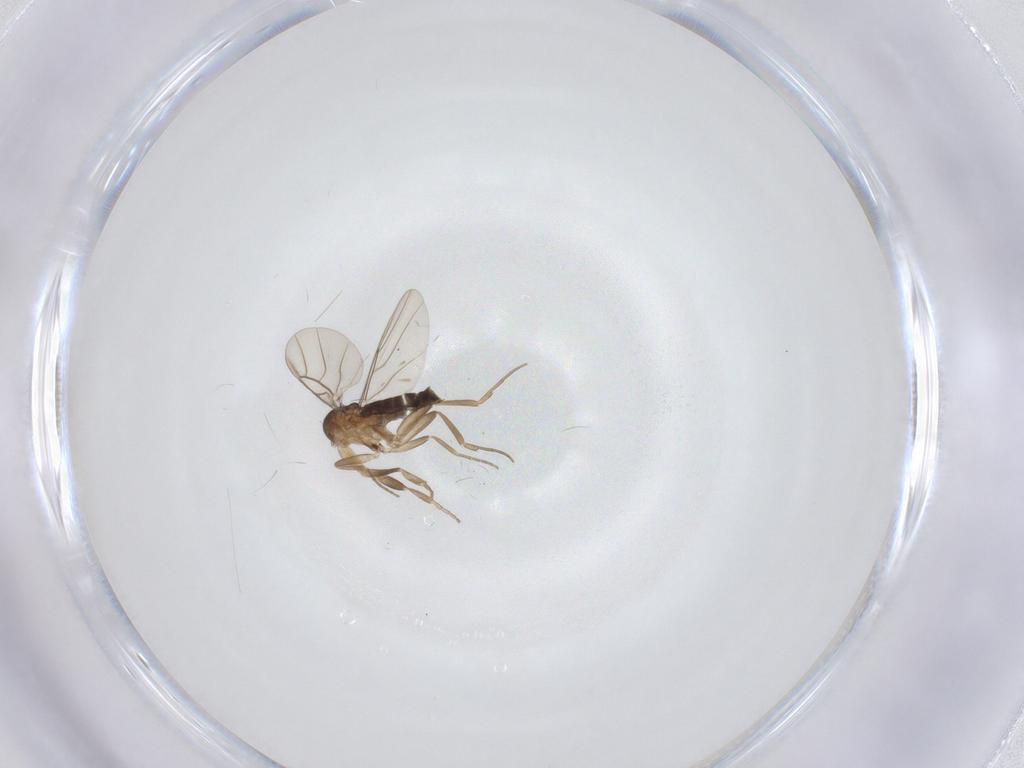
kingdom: Animalia
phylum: Arthropoda
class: Insecta
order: Diptera
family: Phoridae
